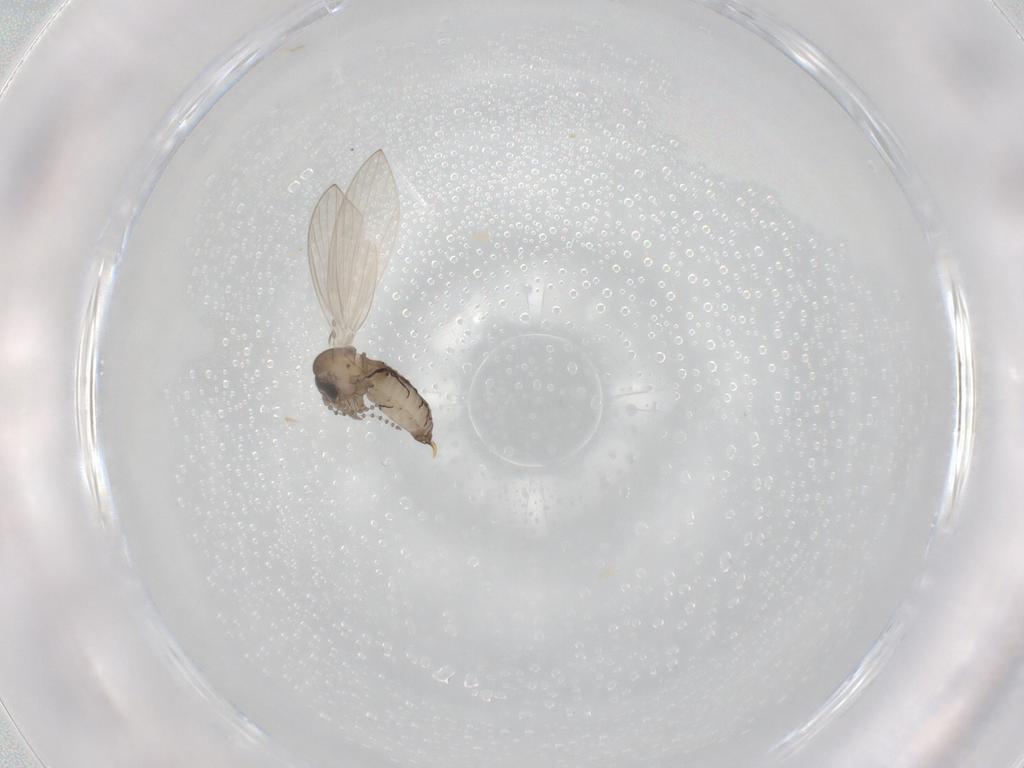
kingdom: Animalia
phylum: Arthropoda
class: Insecta
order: Diptera
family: Psychodidae
